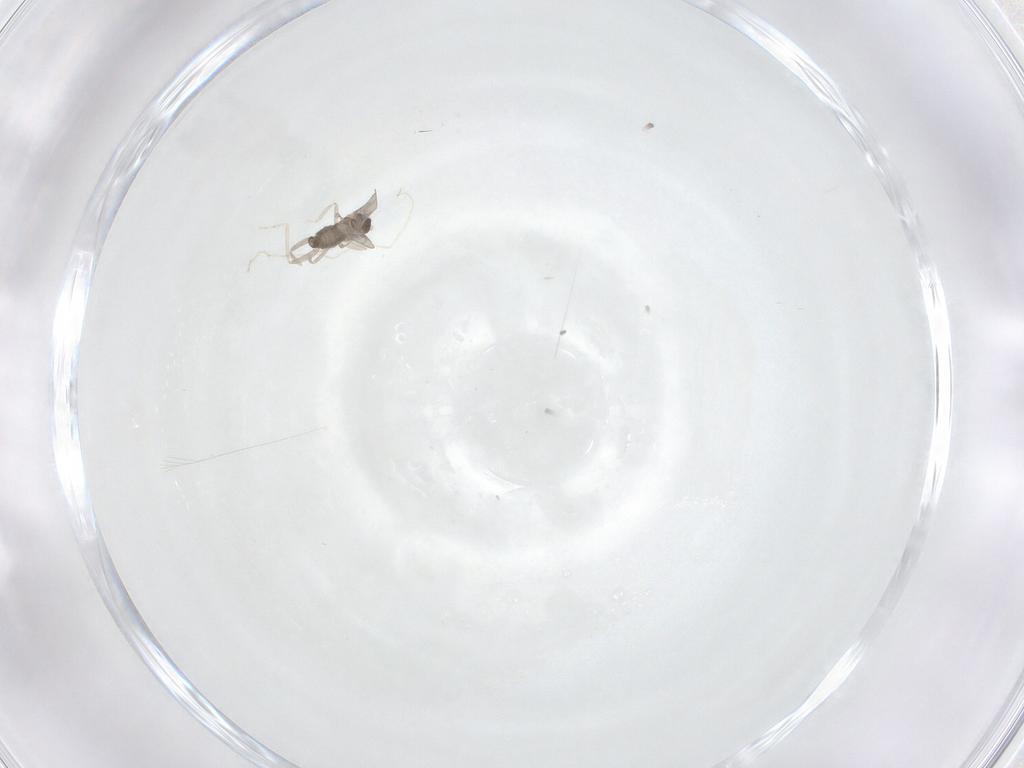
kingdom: Animalia
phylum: Arthropoda
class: Insecta
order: Diptera
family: Cecidomyiidae
